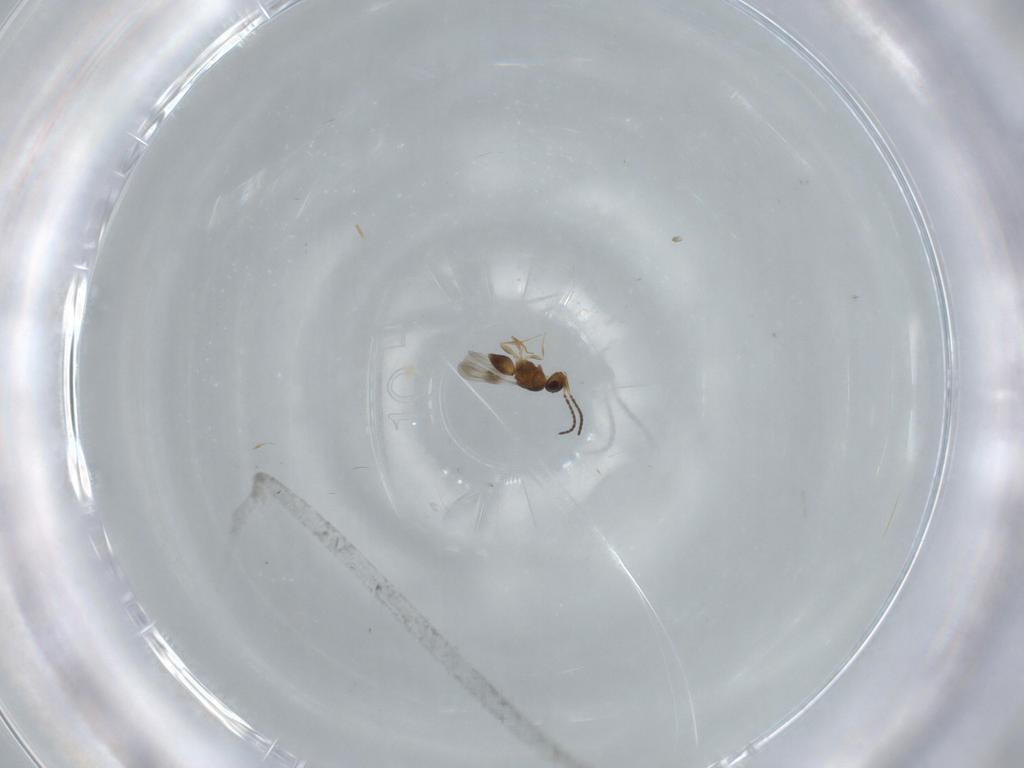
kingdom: Animalia
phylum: Arthropoda
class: Insecta
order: Hymenoptera
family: Ceraphronidae
